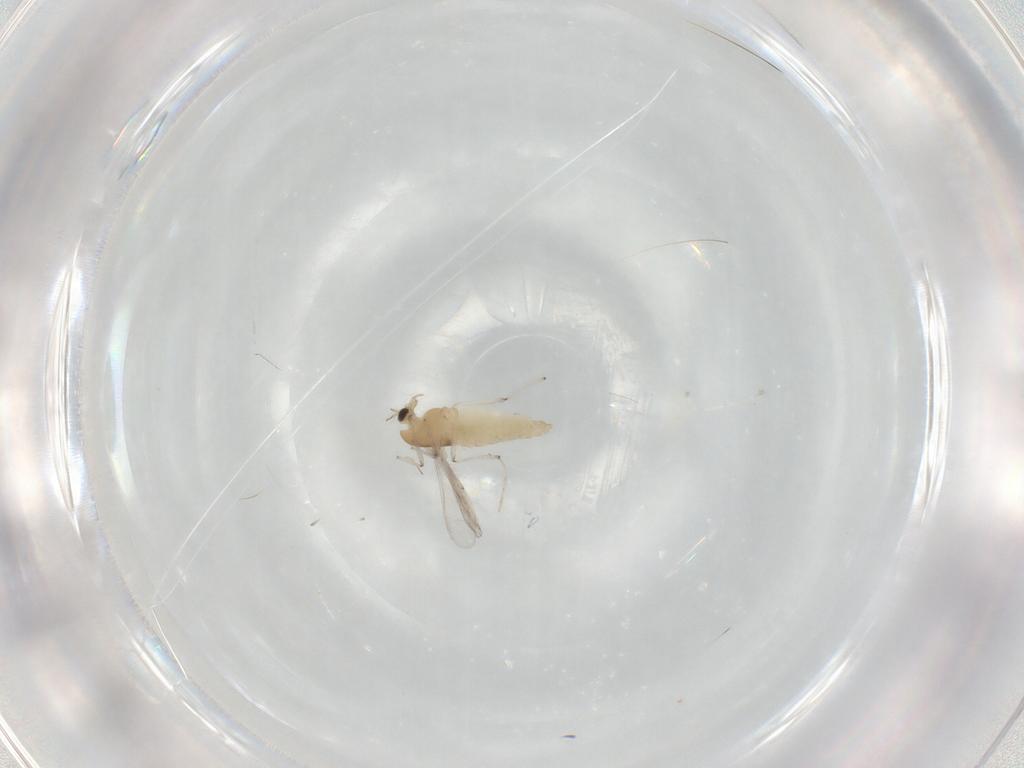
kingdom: Animalia
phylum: Arthropoda
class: Insecta
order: Diptera
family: Chironomidae
